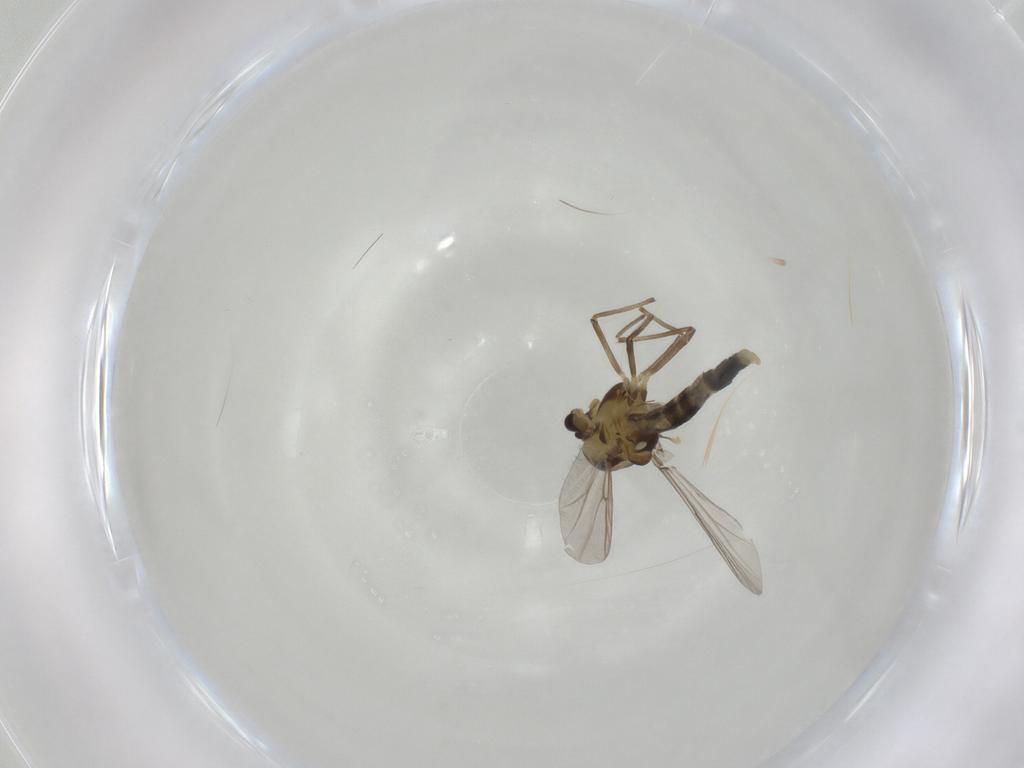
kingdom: Animalia
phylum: Arthropoda
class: Insecta
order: Diptera
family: Chironomidae
